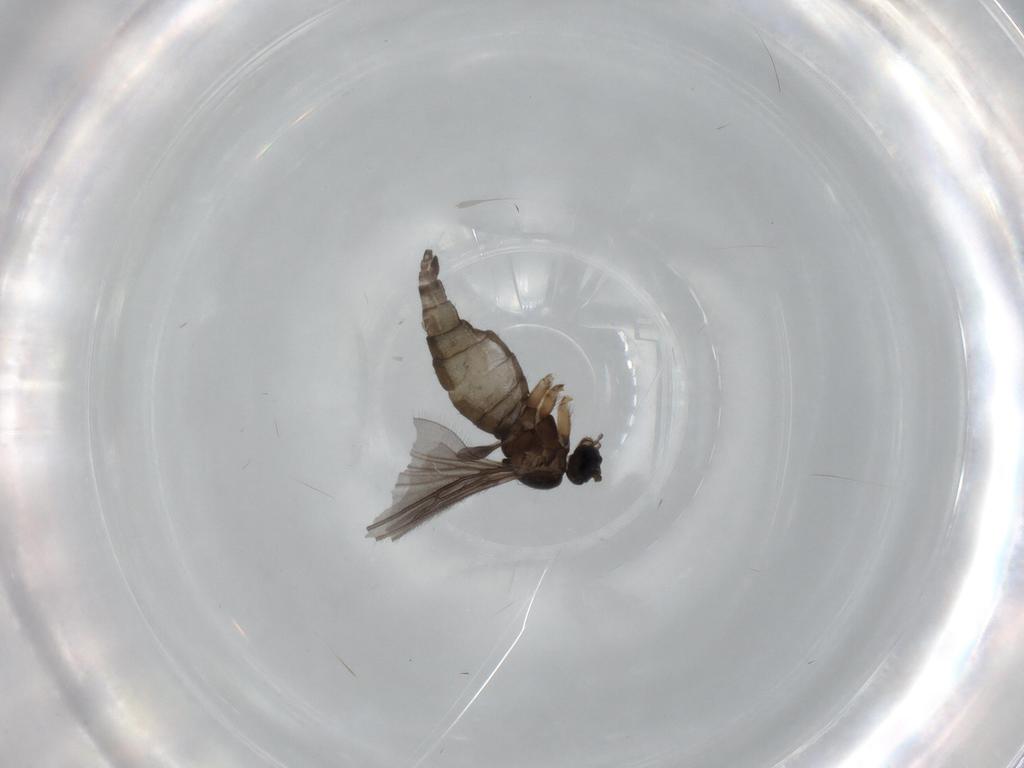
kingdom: Animalia
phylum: Arthropoda
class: Insecta
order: Diptera
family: Sciaridae
